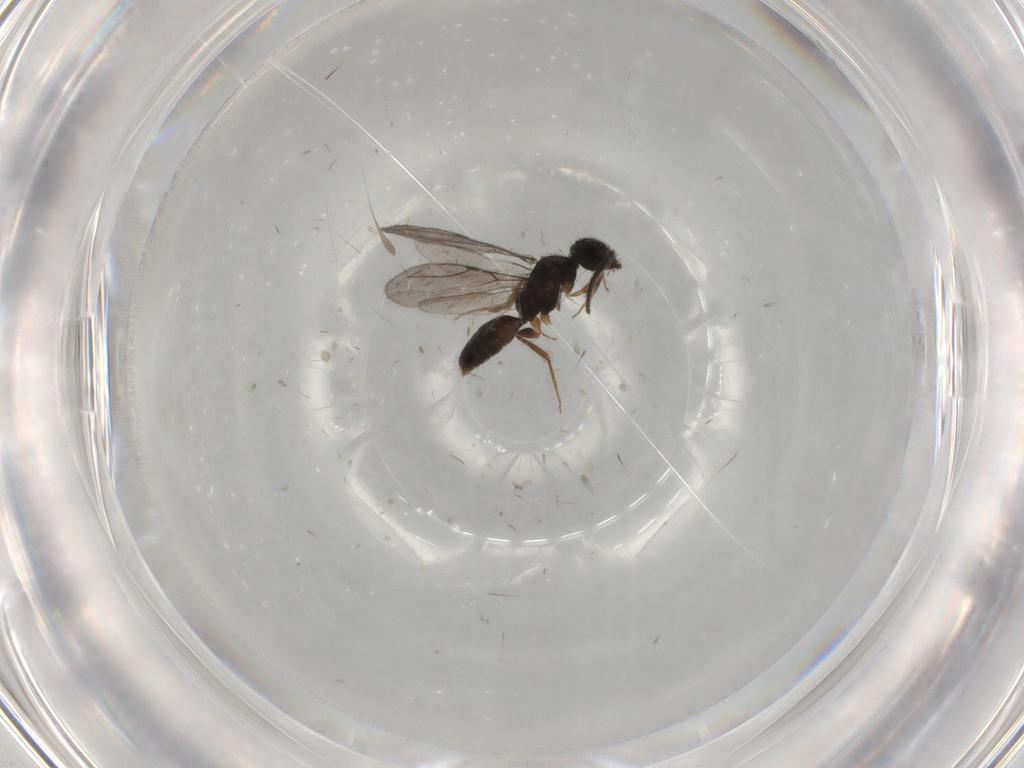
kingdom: Animalia
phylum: Arthropoda
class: Insecta
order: Hymenoptera
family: Bethylidae
